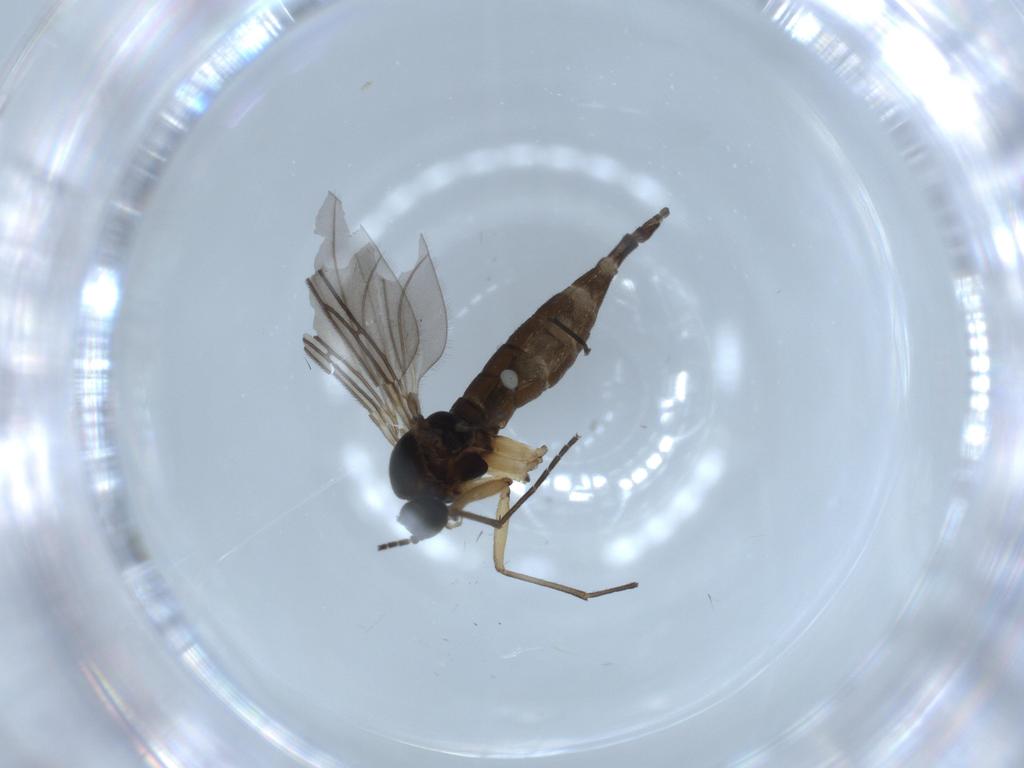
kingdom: Animalia
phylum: Arthropoda
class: Insecta
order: Diptera
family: Sciaridae
